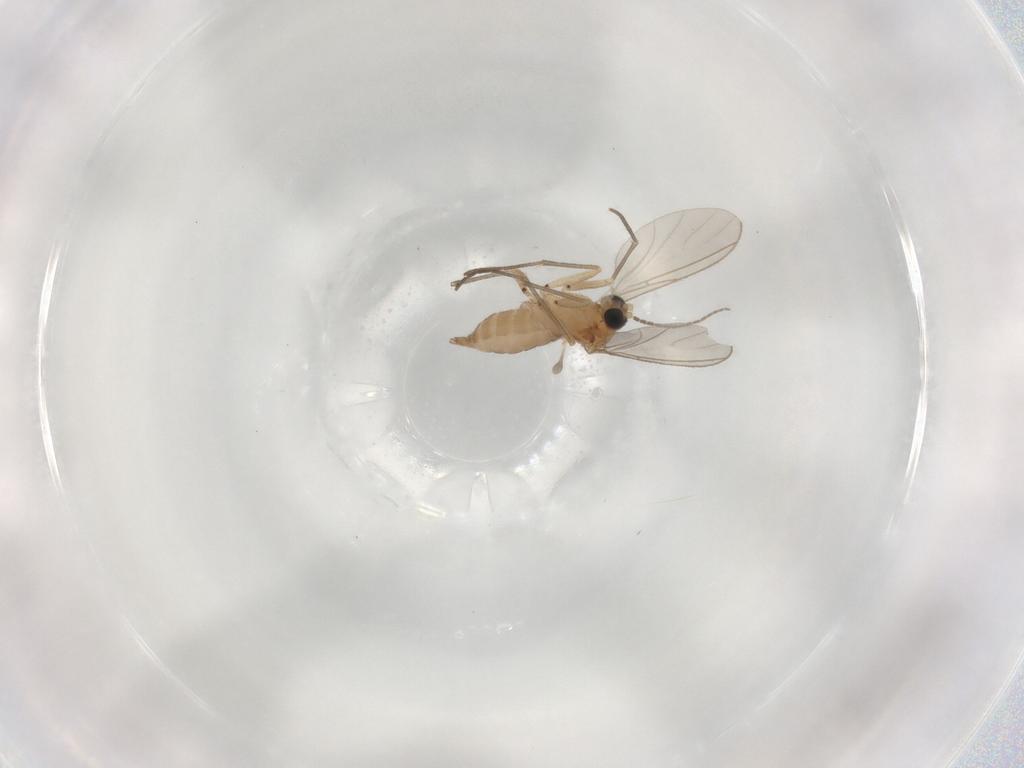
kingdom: Animalia
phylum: Arthropoda
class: Insecta
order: Diptera
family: Sciaridae
